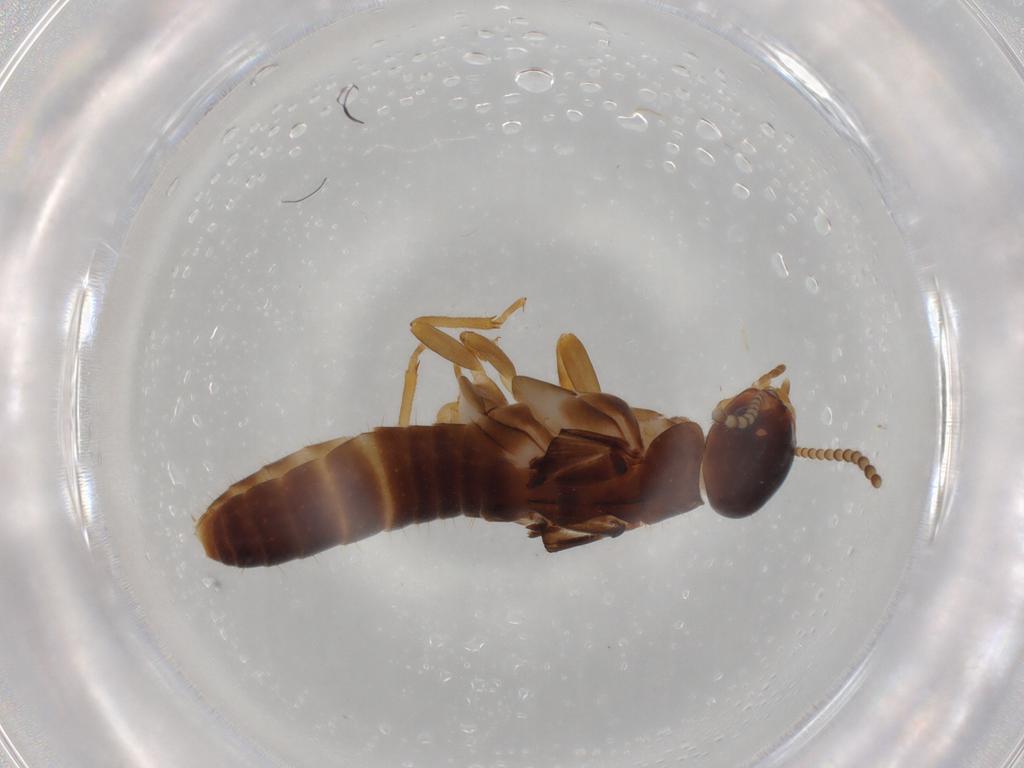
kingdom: Animalia
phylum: Arthropoda
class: Insecta
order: Blattodea
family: Kalotermitidae
